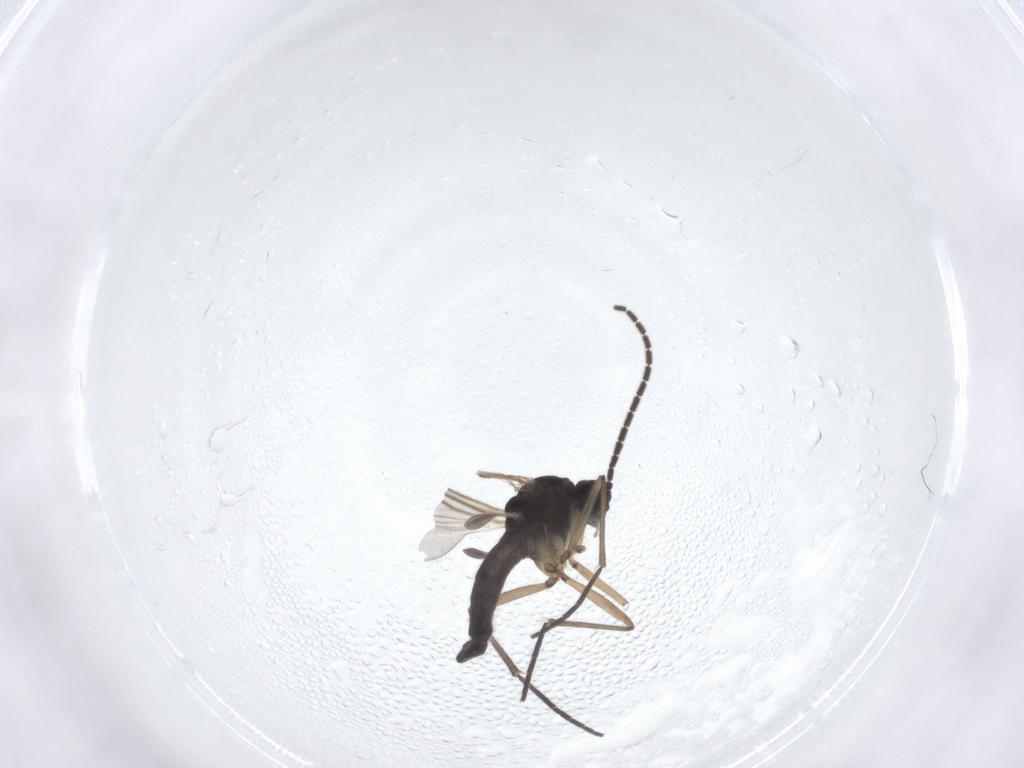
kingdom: Animalia
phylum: Arthropoda
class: Insecta
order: Diptera
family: Sciaridae
